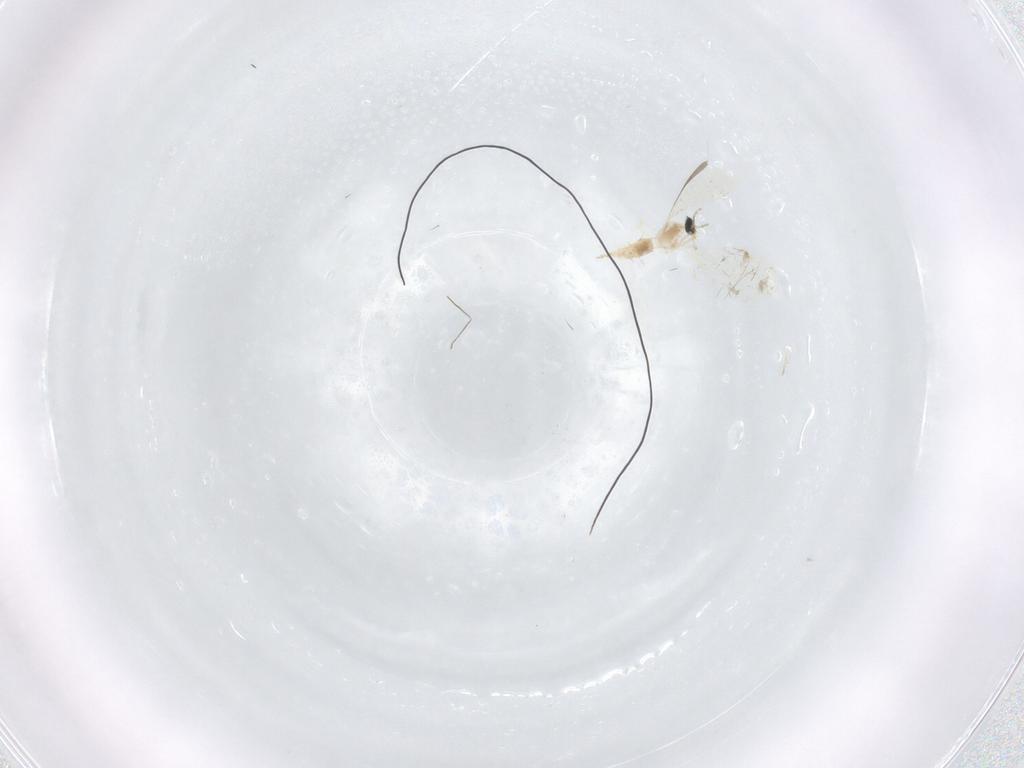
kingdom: Animalia
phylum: Arthropoda
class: Insecta
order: Diptera
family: Cecidomyiidae
